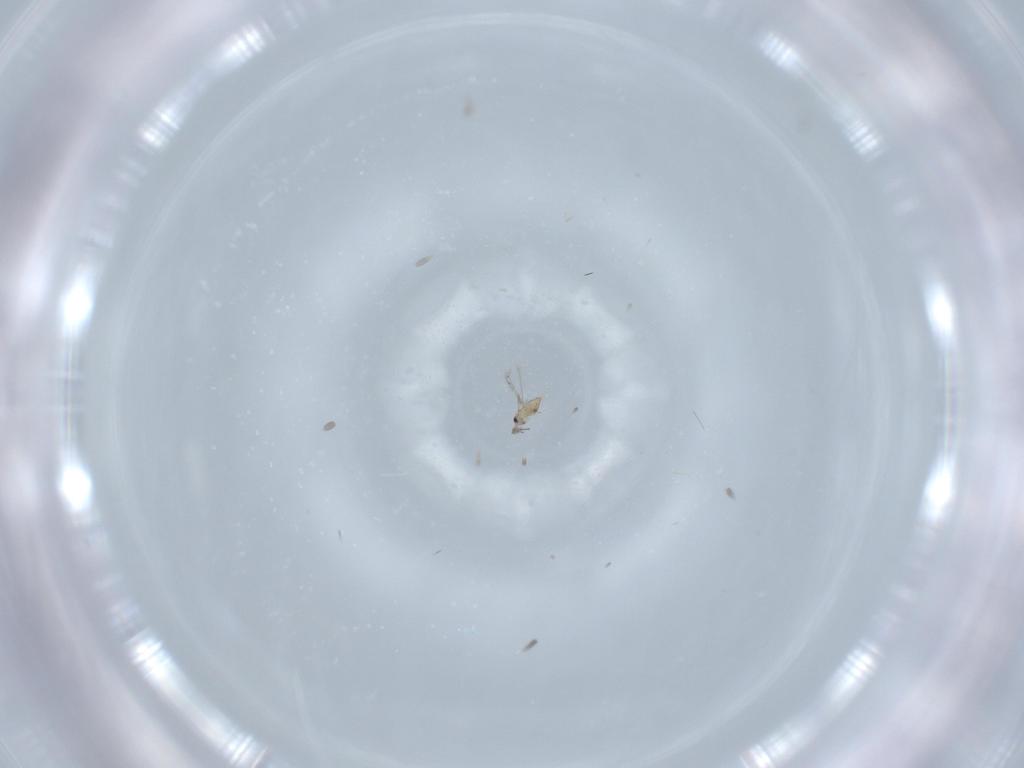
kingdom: Animalia
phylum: Arthropoda
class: Insecta
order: Hymenoptera
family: Mymaridae
